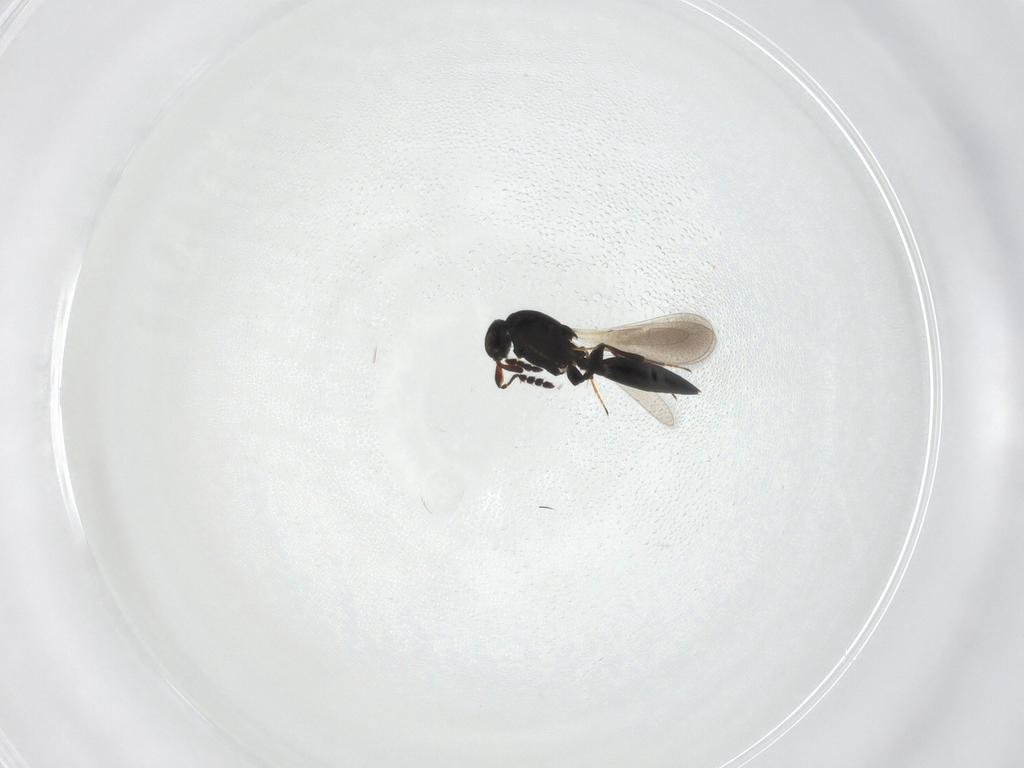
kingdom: Animalia
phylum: Arthropoda
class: Insecta
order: Hymenoptera
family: Platygastridae
